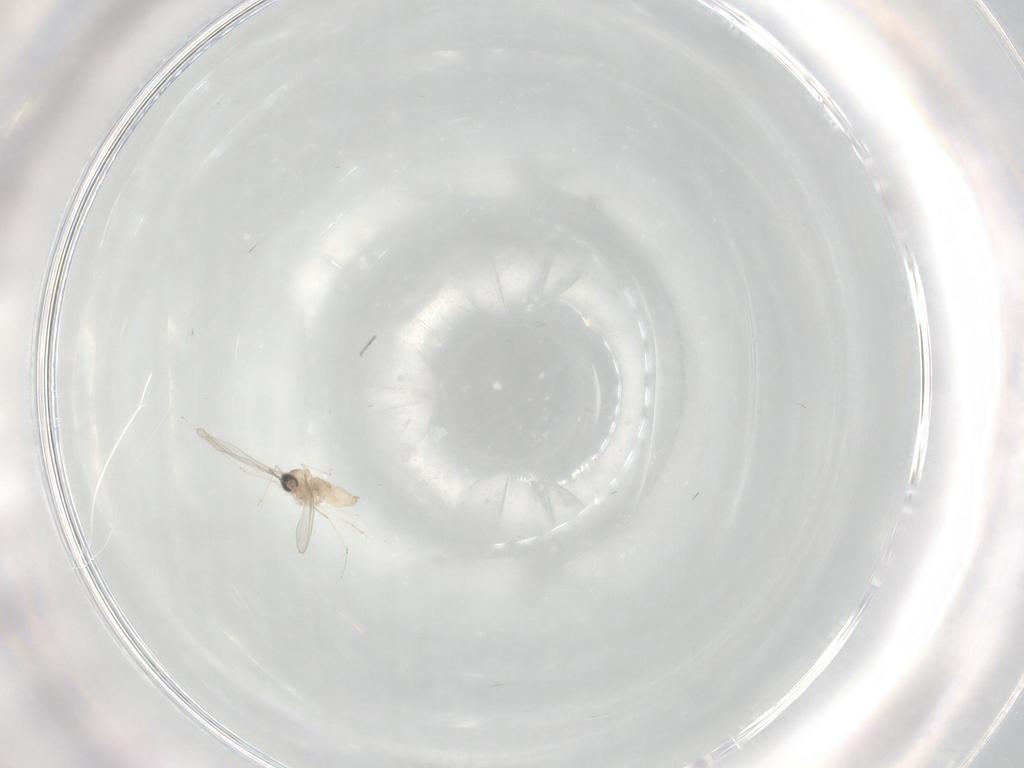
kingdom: Animalia
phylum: Arthropoda
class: Insecta
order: Diptera
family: Cecidomyiidae
